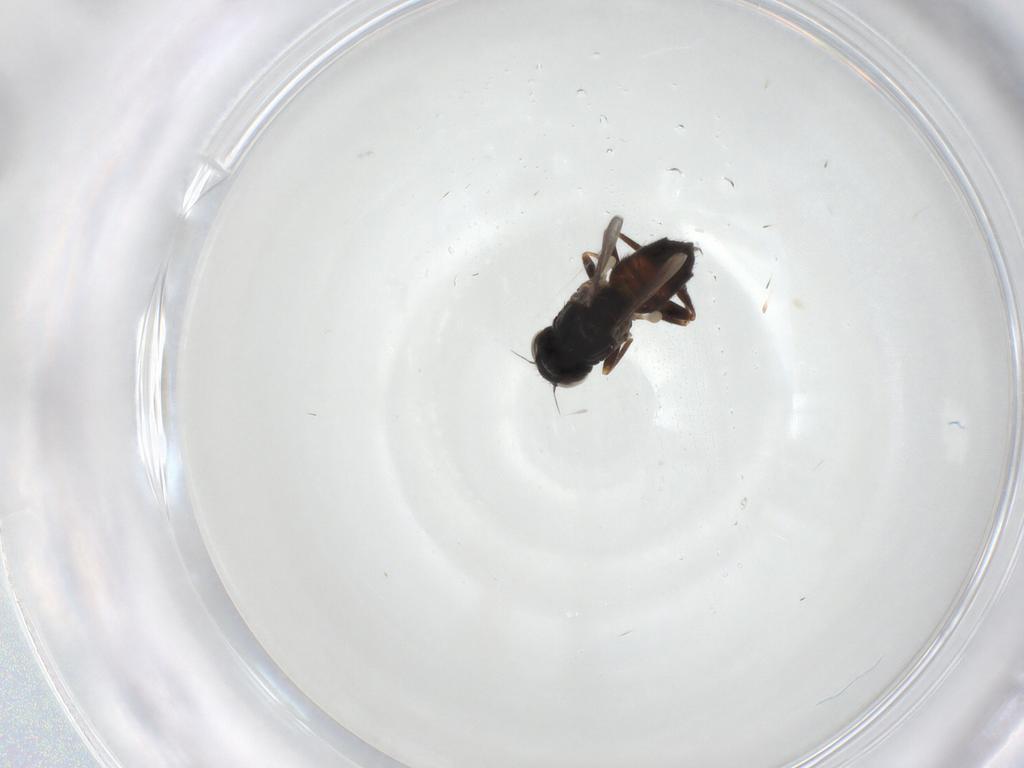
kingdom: Animalia
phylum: Arthropoda
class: Insecta
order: Diptera
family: Chloropidae
